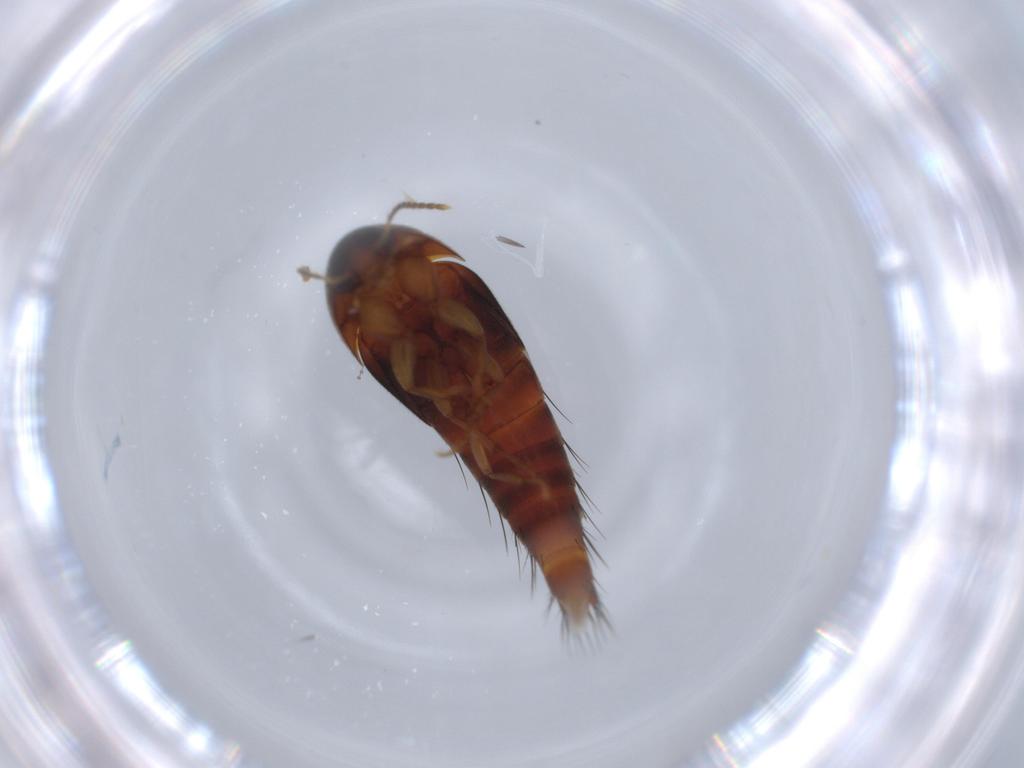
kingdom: Animalia
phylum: Arthropoda
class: Insecta
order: Coleoptera
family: Staphylinidae
